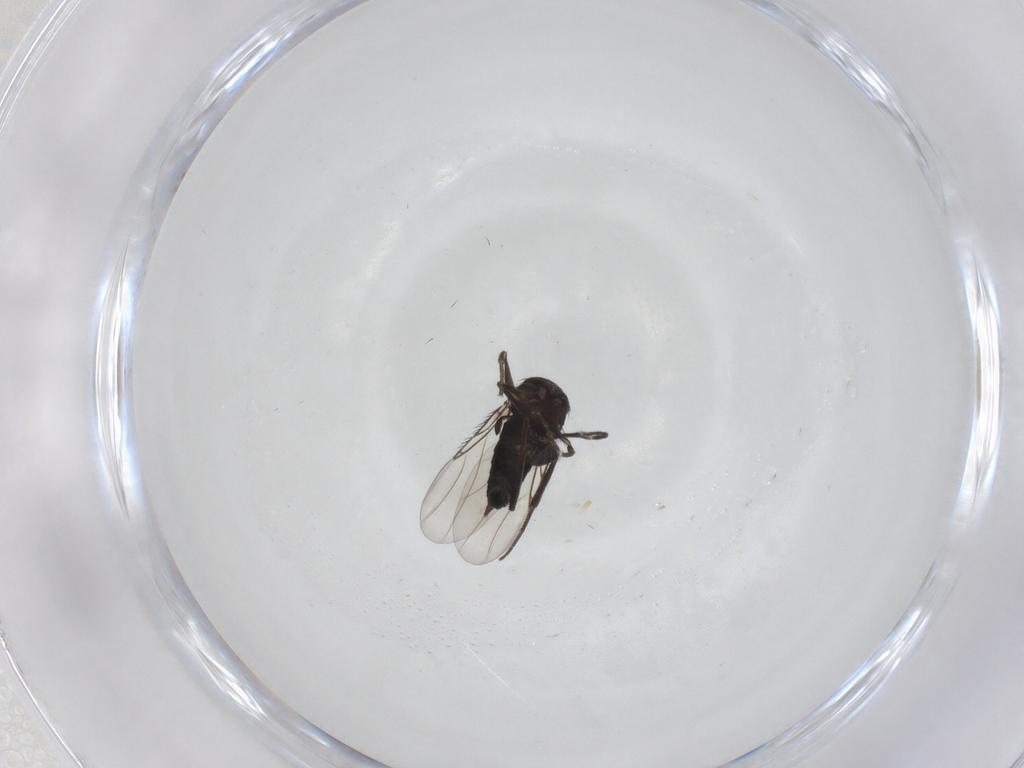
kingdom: Animalia
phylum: Arthropoda
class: Insecta
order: Diptera
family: Phoridae
